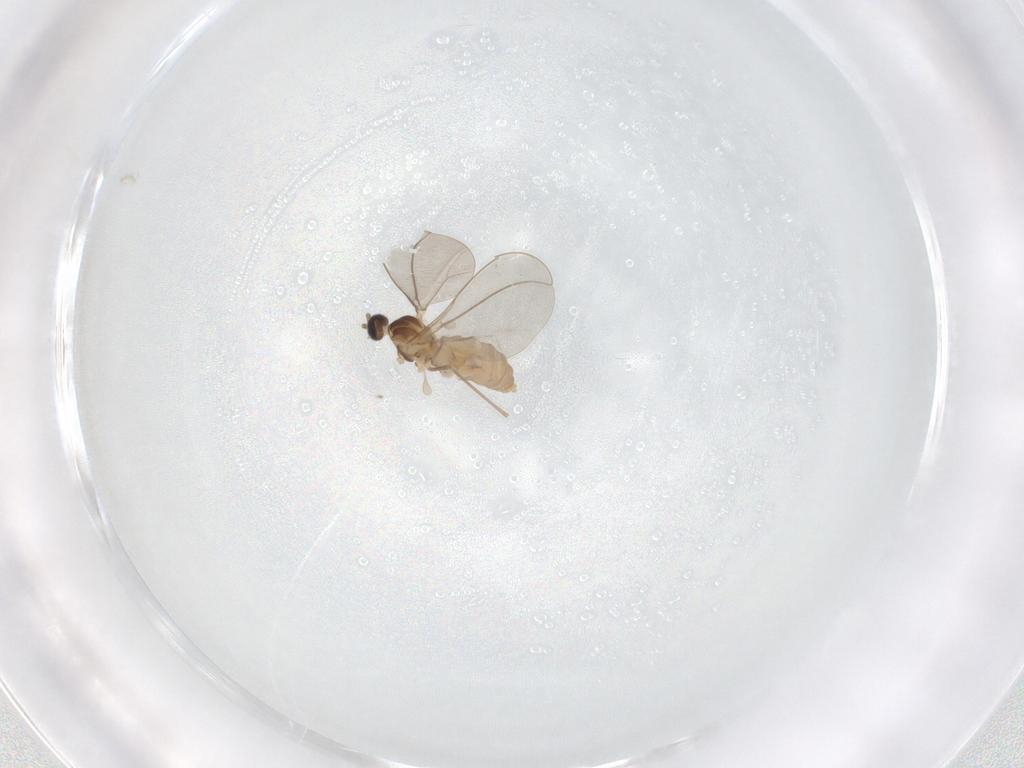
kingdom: Animalia
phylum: Arthropoda
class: Insecta
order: Diptera
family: Cecidomyiidae
